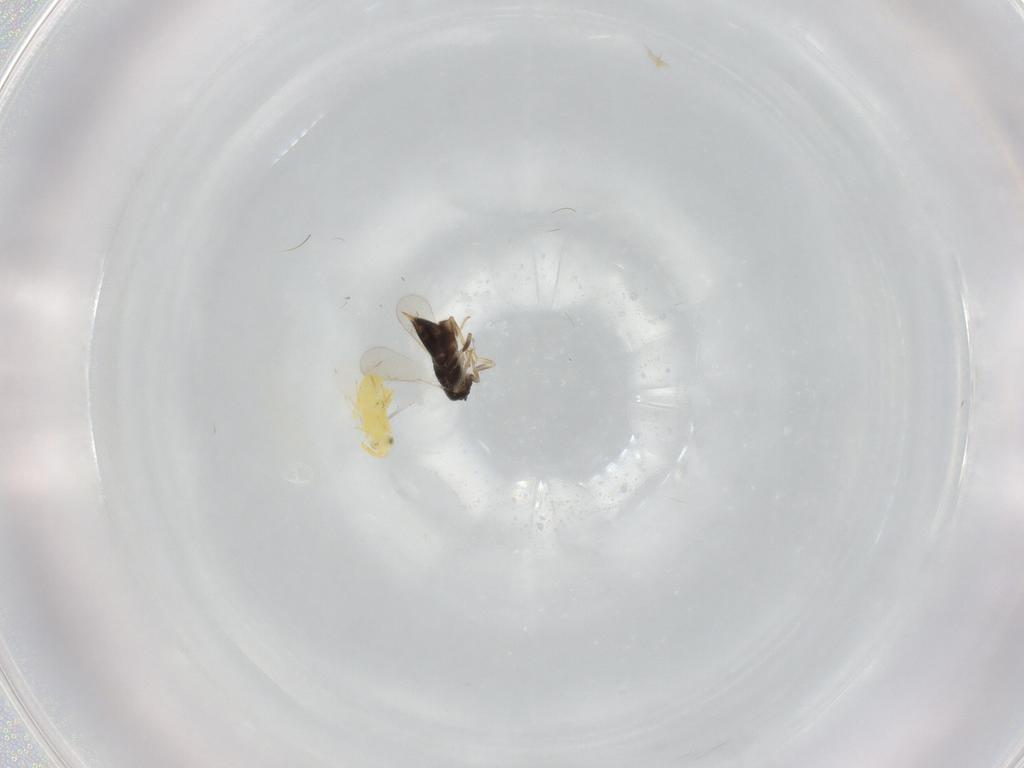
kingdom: Animalia
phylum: Arthropoda
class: Insecta
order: Hymenoptera
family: Aphelinidae
